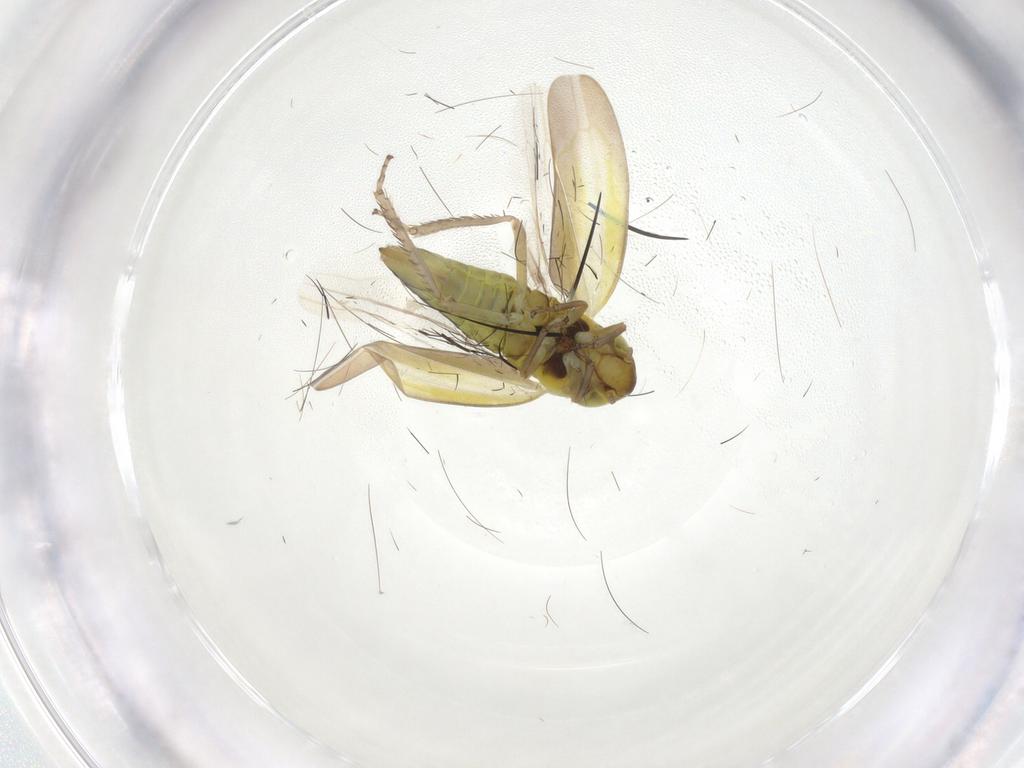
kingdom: Animalia
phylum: Arthropoda
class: Insecta
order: Hemiptera
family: Cicadellidae
